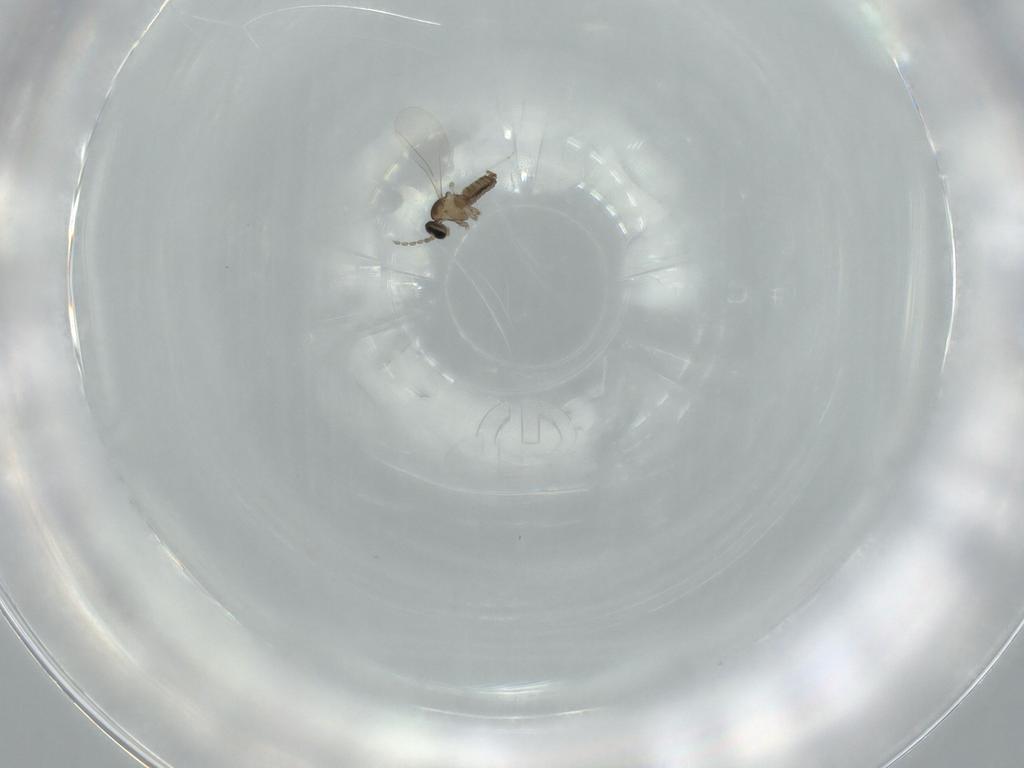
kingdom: Animalia
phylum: Arthropoda
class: Insecta
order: Diptera
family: Cecidomyiidae
